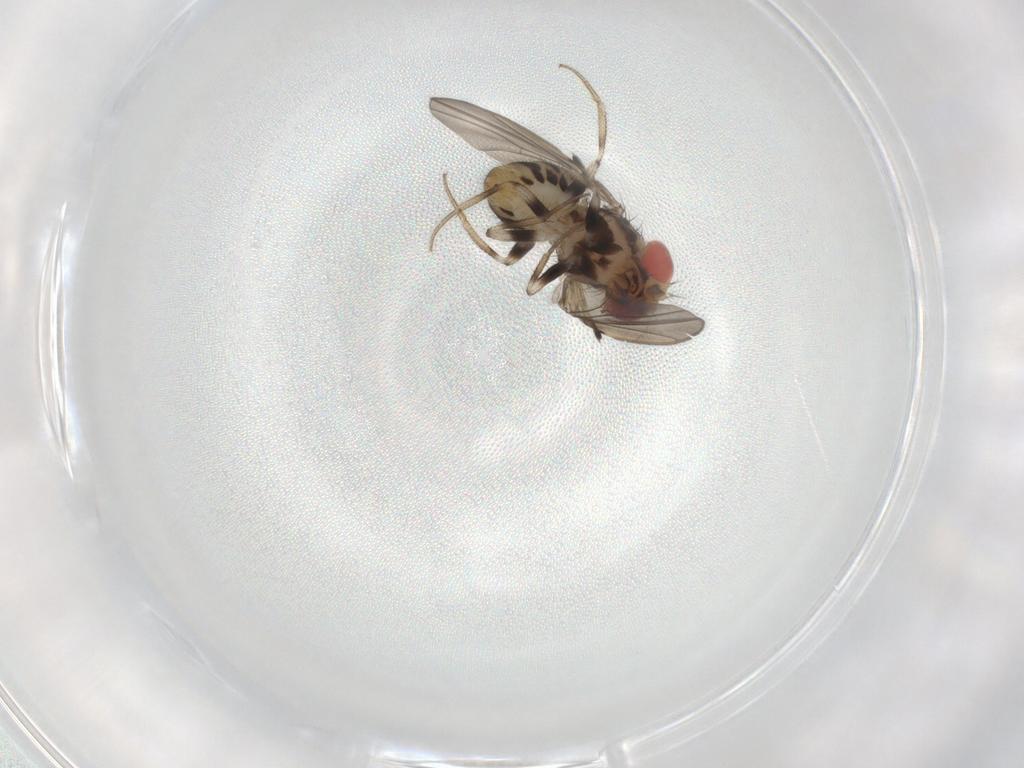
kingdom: Animalia
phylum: Arthropoda
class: Insecta
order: Diptera
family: Drosophilidae
